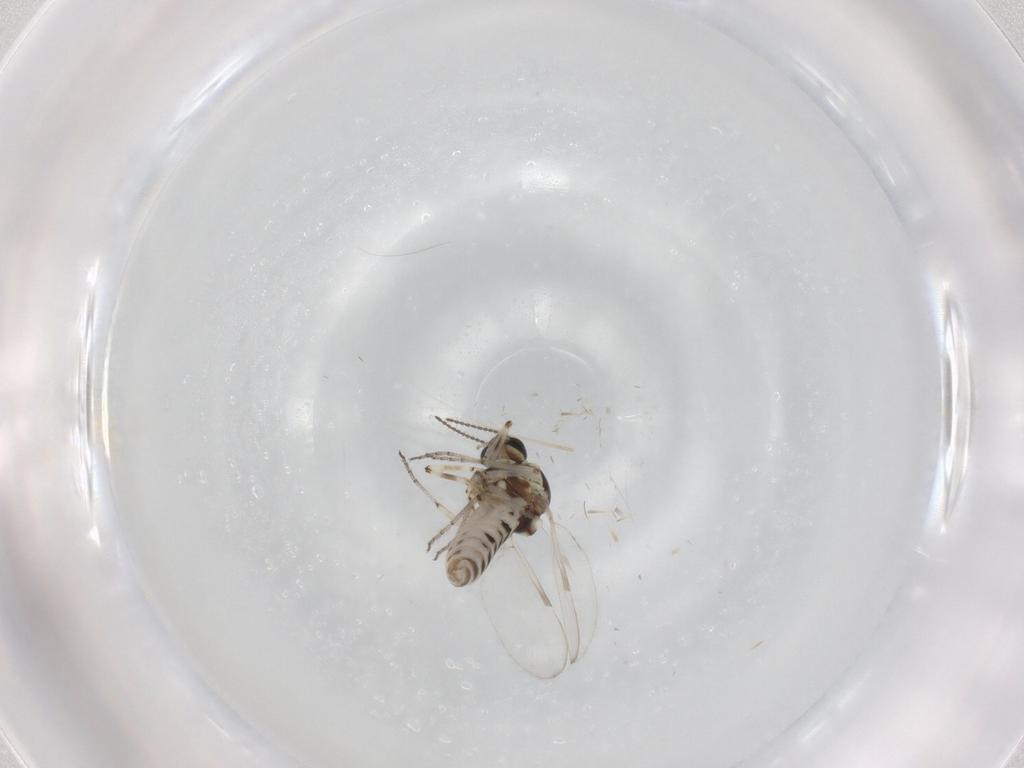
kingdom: Animalia
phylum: Arthropoda
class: Insecta
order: Diptera
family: Ceratopogonidae
